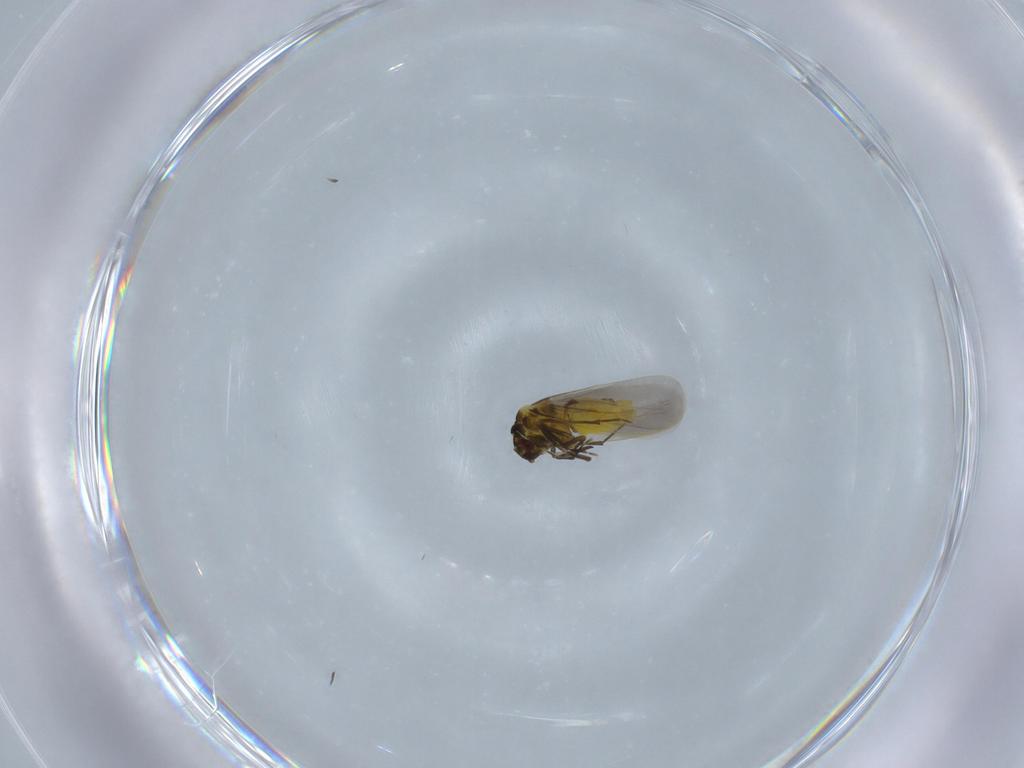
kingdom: Animalia
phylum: Arthropoda
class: Insecta
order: Hemiptera
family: Aleyrodidae
